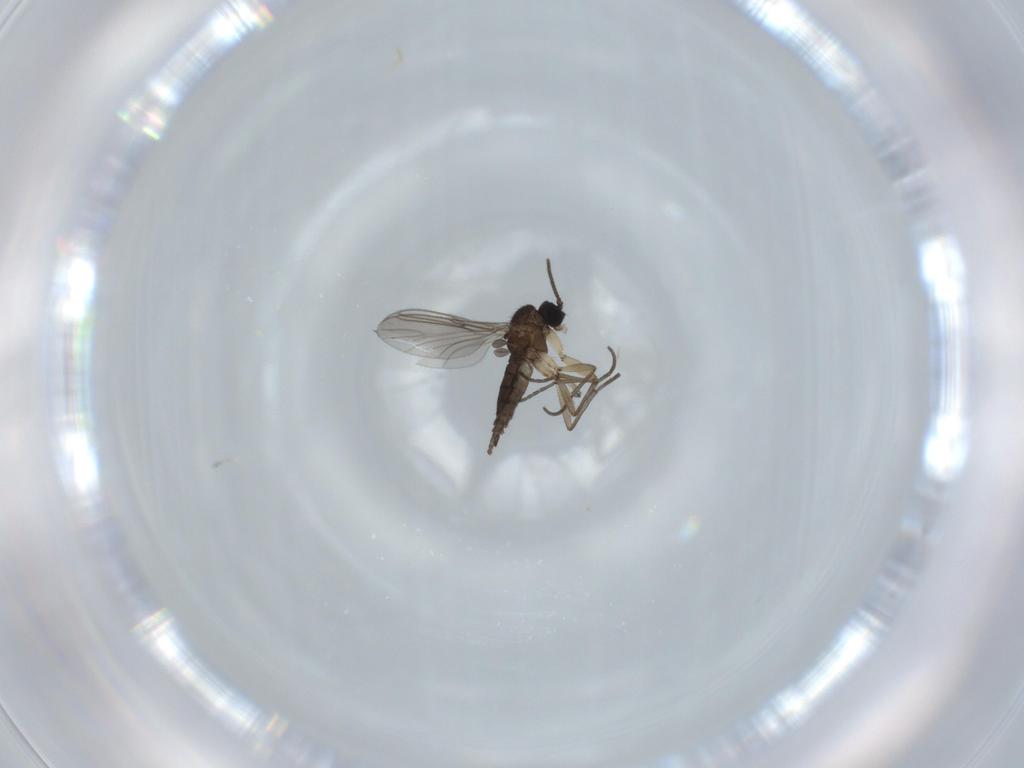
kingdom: Animalia
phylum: Arthropoda
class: Insecta
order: Diptera
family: Sciaridae
